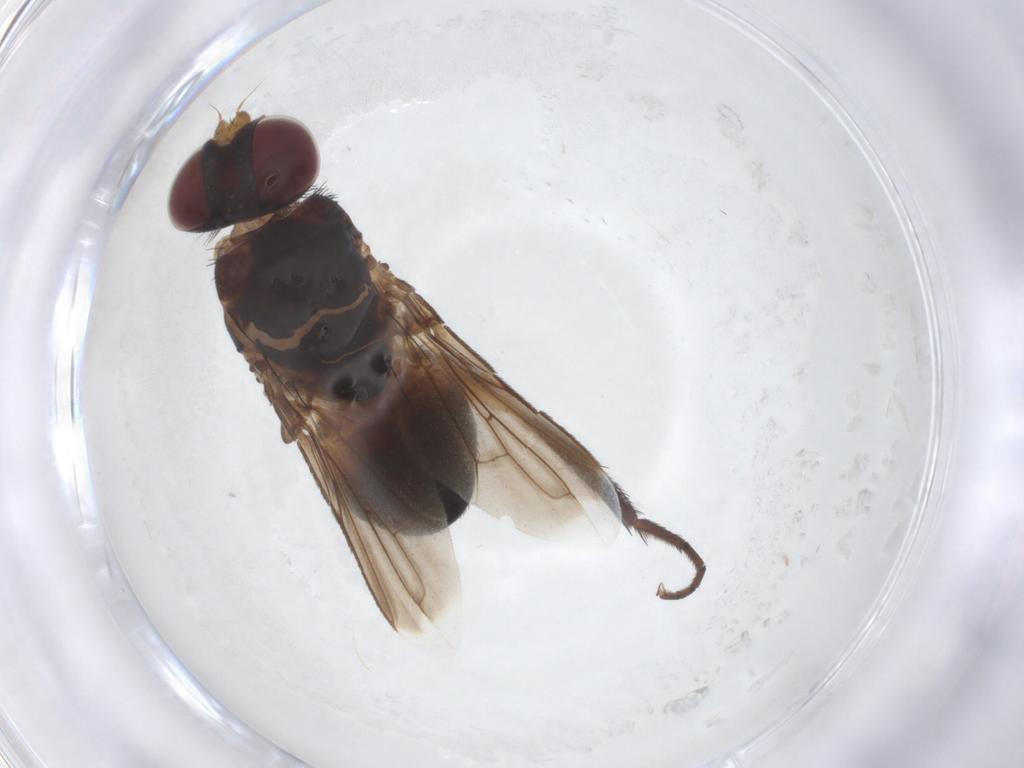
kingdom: Animalia
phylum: Arthropoda
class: Insecta
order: Diptera
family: Tachinidae
